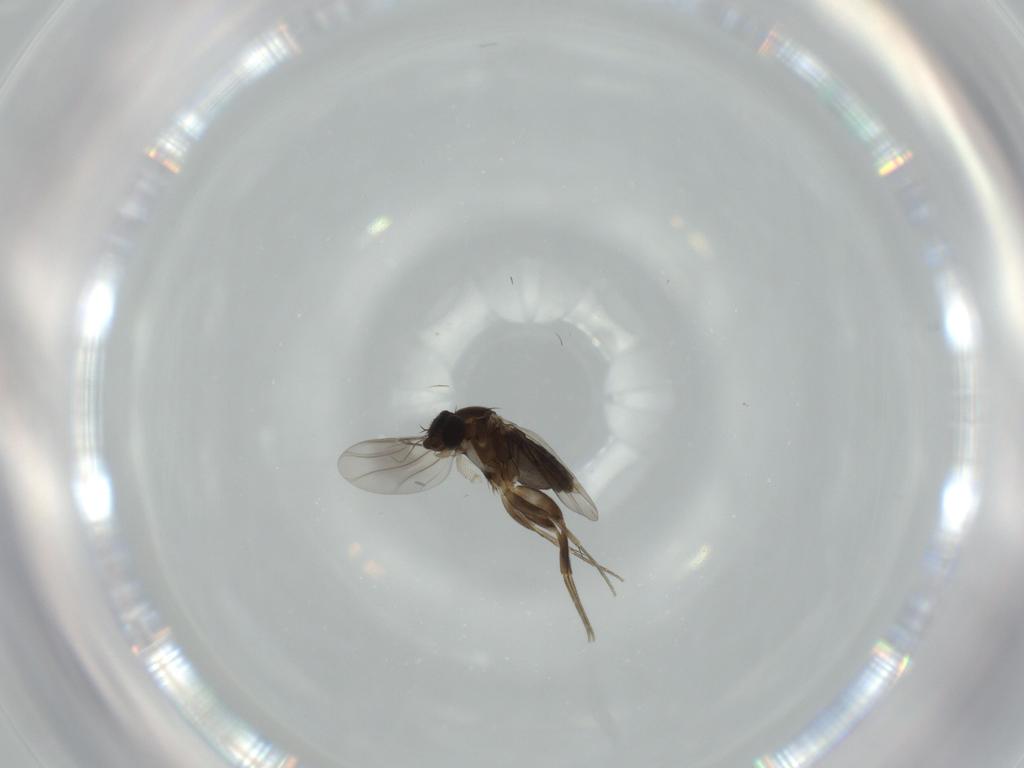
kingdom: Animalia
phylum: Arthropoda
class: Insecta
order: Diptera
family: Phoridae
